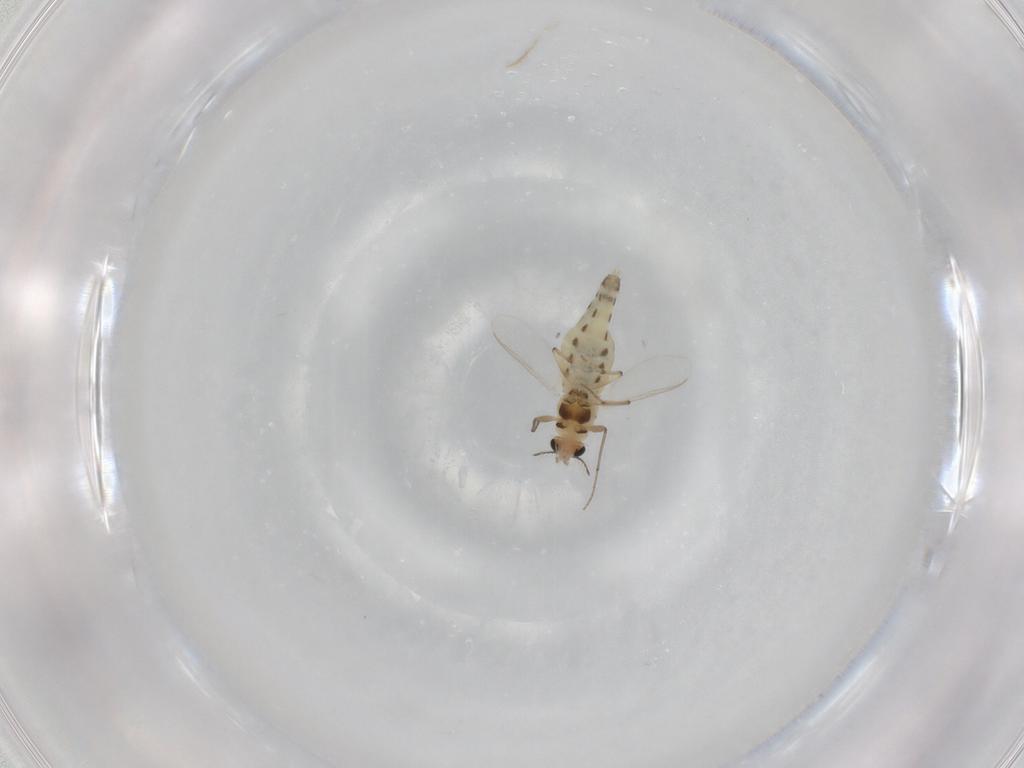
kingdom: Animalia
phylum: Arthropoda
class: Insecta
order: Diptera
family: Chironomidae
